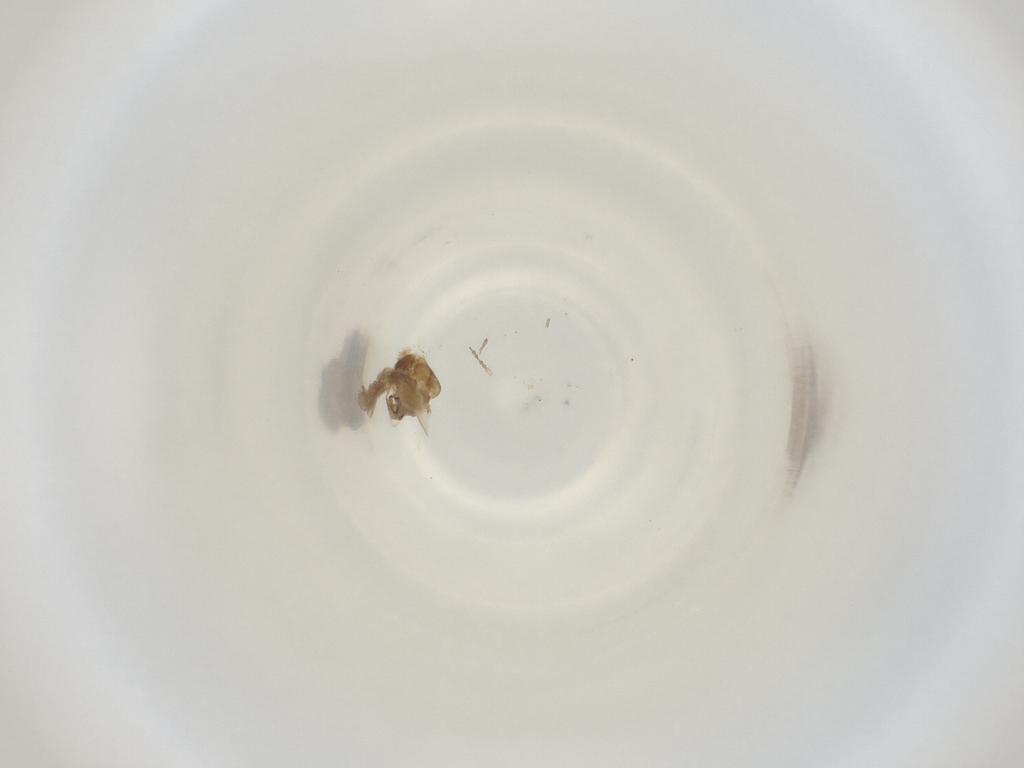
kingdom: Animalia
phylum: Arthropoda
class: Insecta
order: Diptera
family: Cecidomyiidae
